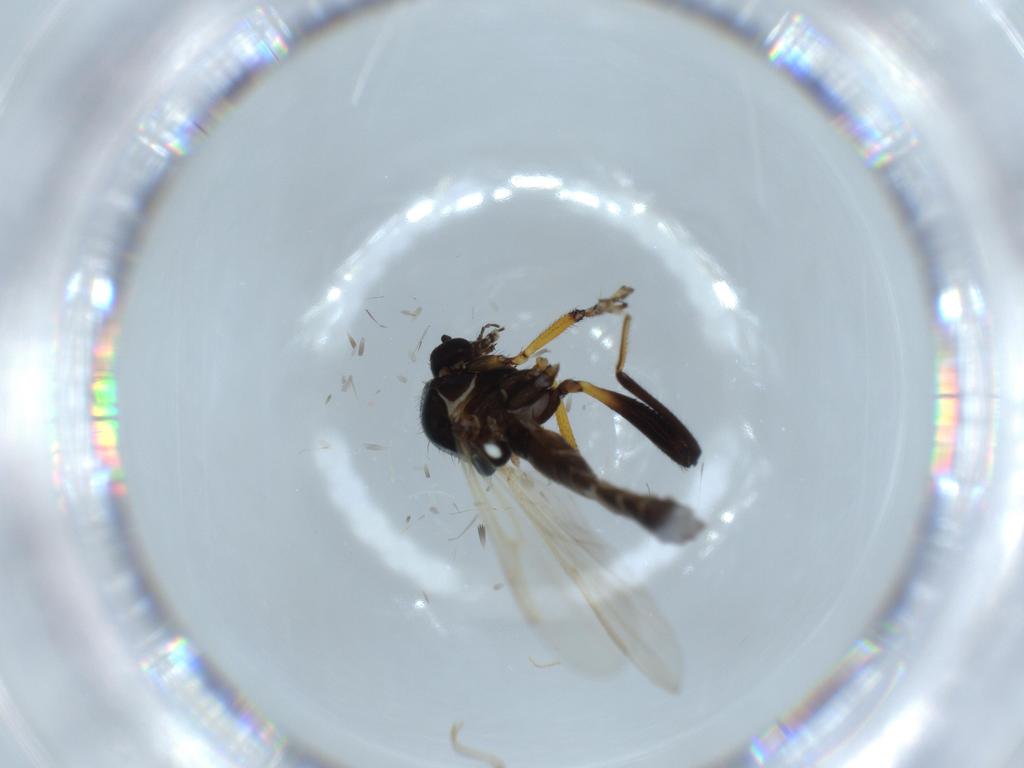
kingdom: Animalia
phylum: Arthropoda
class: Insecta
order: Diptera
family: Ceratopogonidae
